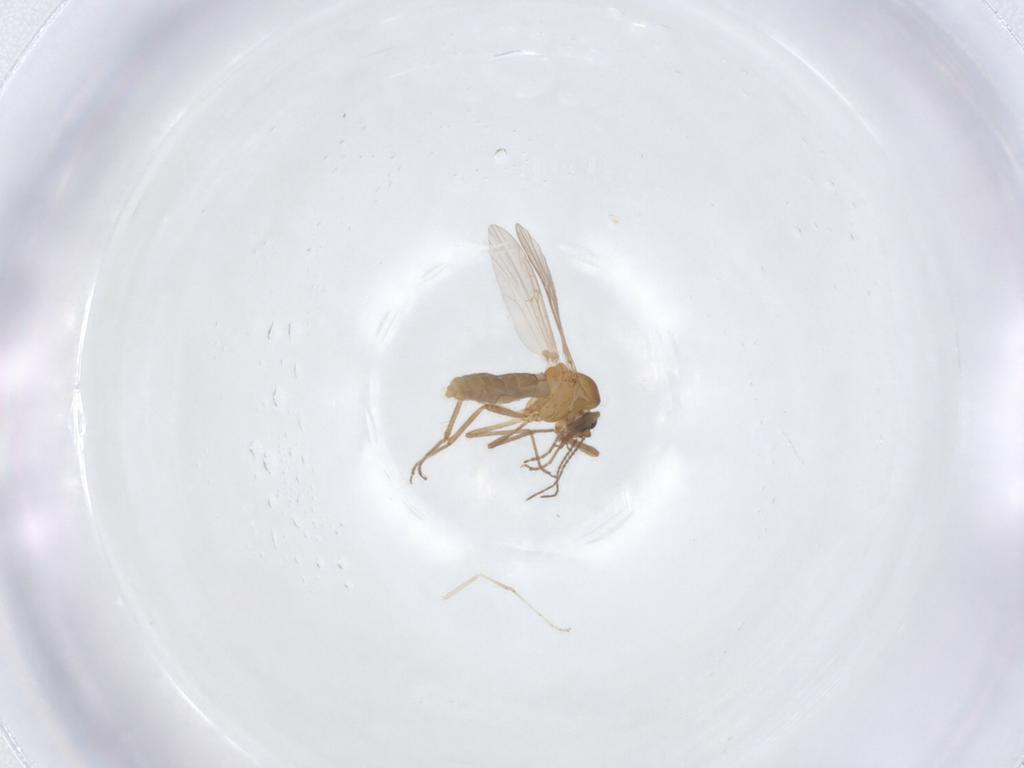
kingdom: Animalia
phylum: Arthropoda
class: Insecta
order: Diptera
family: Ceratopogonidae
